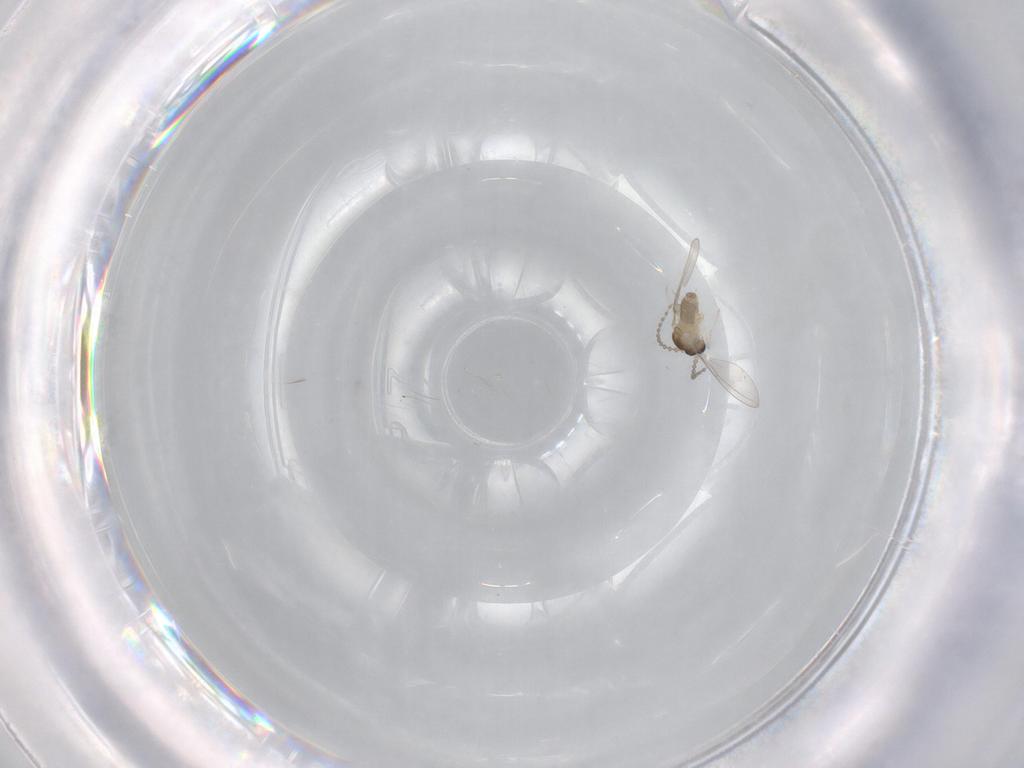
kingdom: Animalia
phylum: Arthropoda
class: Insecta
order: Diptera
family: Cecidomyiidae
